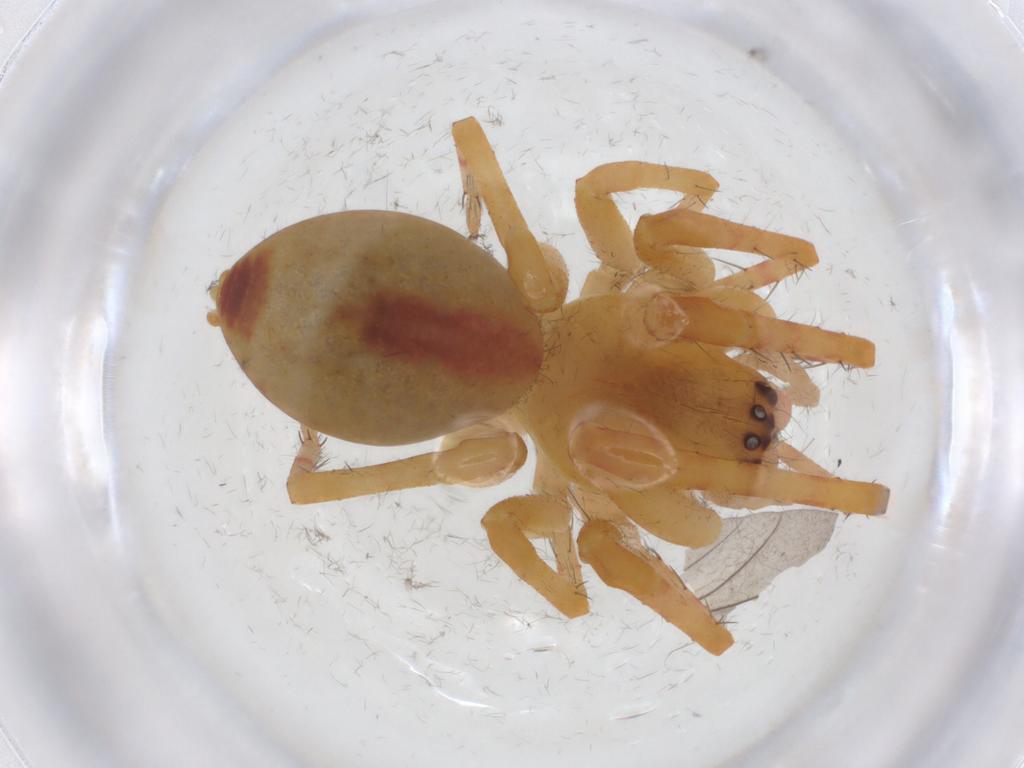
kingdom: Animalia
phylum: Arthropoda
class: Arachnida
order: Araneae
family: Mimetidae
